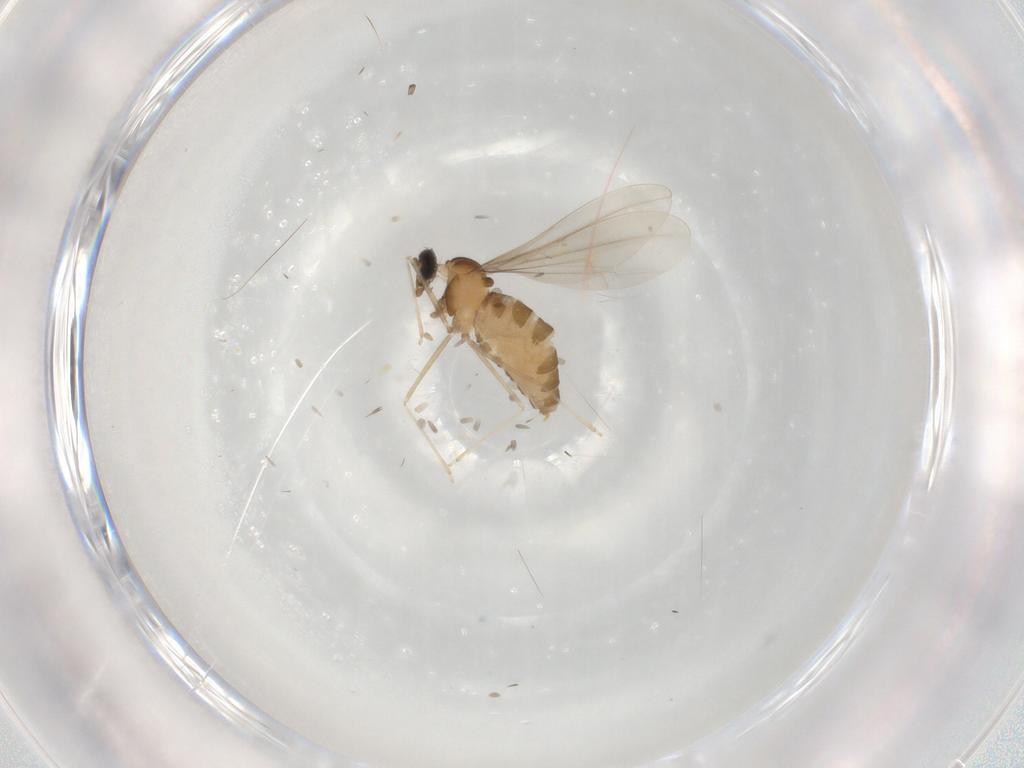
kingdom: Animalia
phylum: Arthropoda
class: Insecta
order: Diptera
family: Cecidomyiidae
